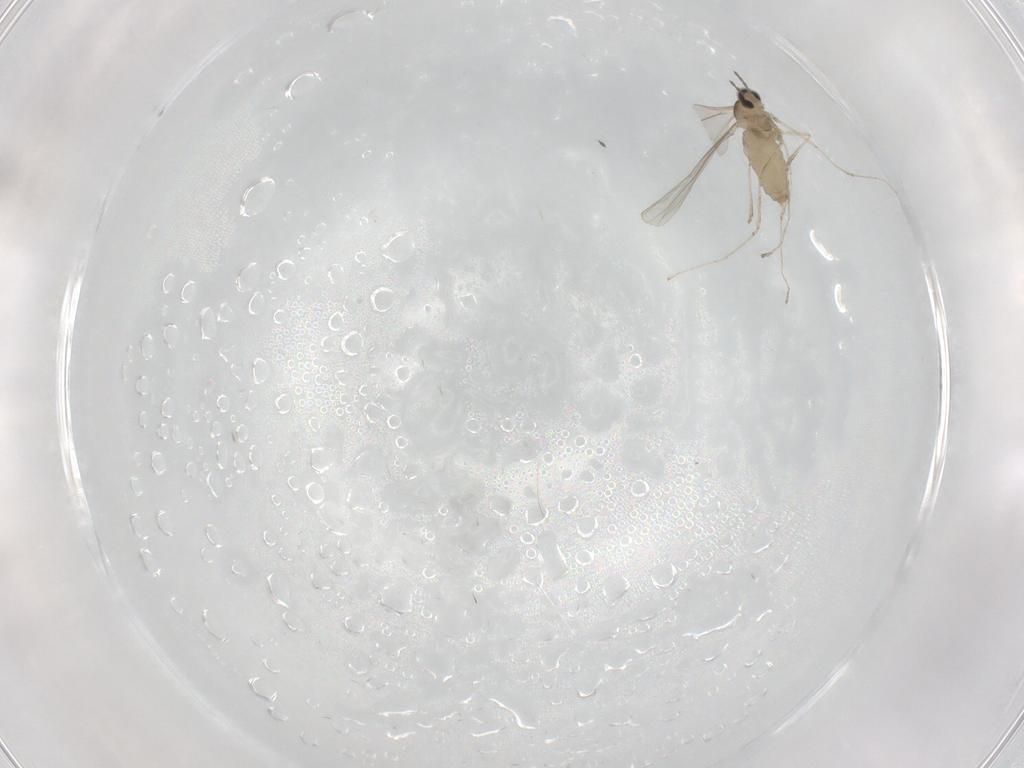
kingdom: Animalia
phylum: Arthropoda
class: Insecta
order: Diptera
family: Cecidomyiidae
